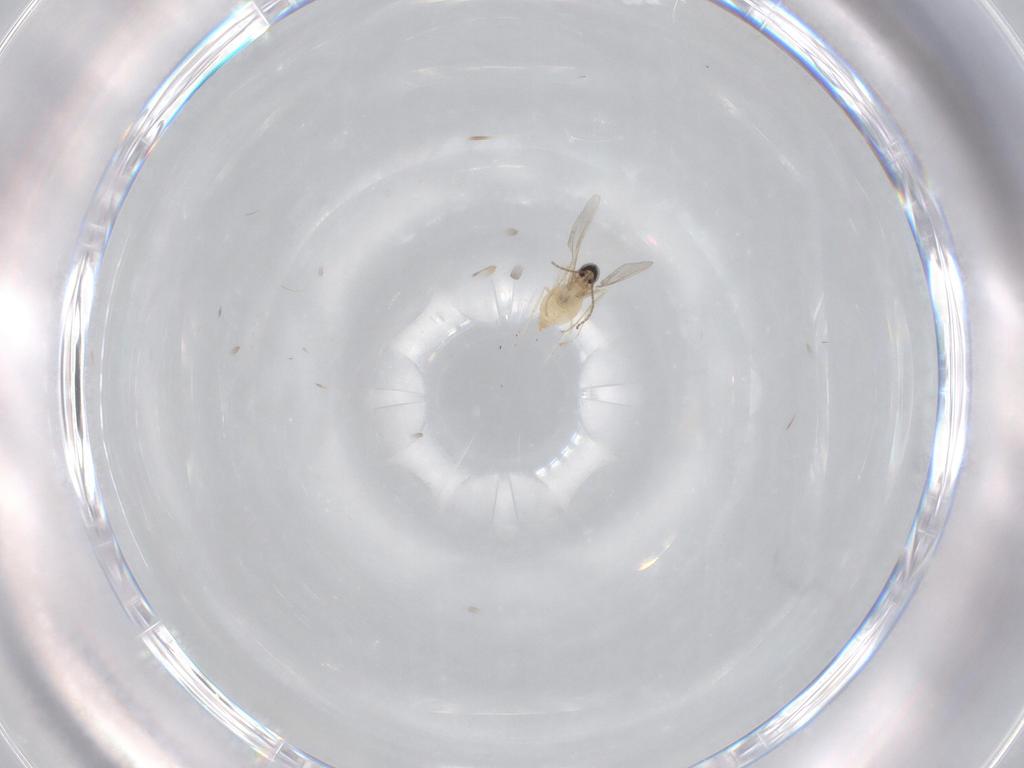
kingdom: Animalia
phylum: Arthropoda
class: Insecta
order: Diptera
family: Cecidomyiidae
